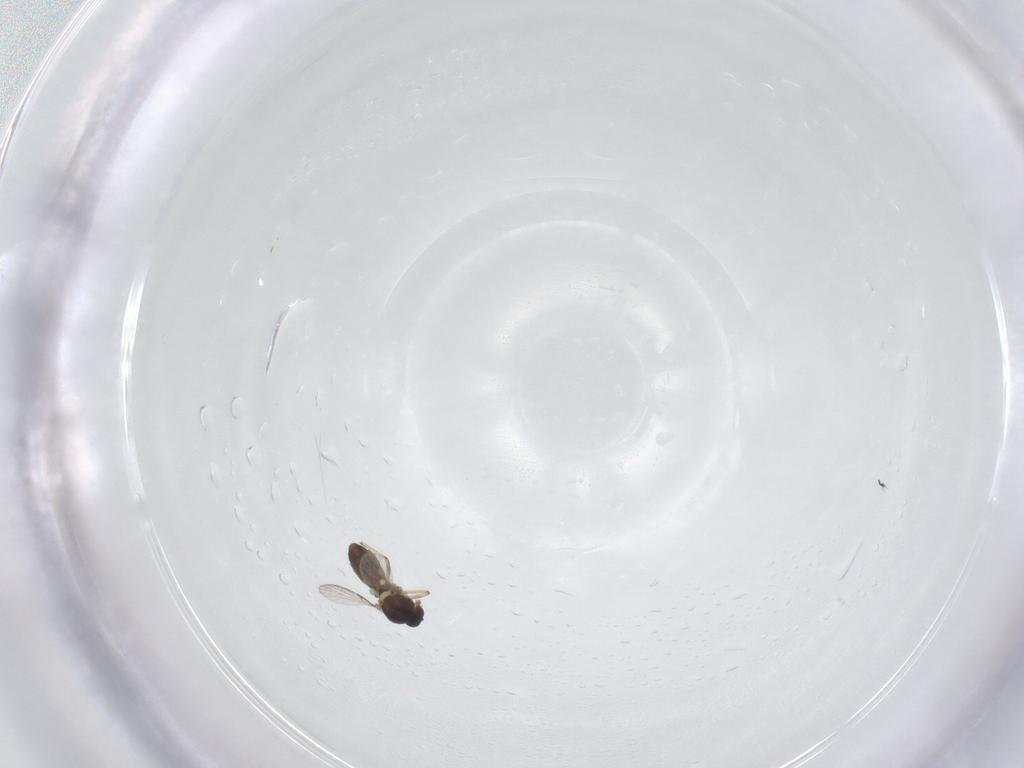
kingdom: Animalia
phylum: Arthropoda
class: Insecta
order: Diptera
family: Ceratopogonidae
